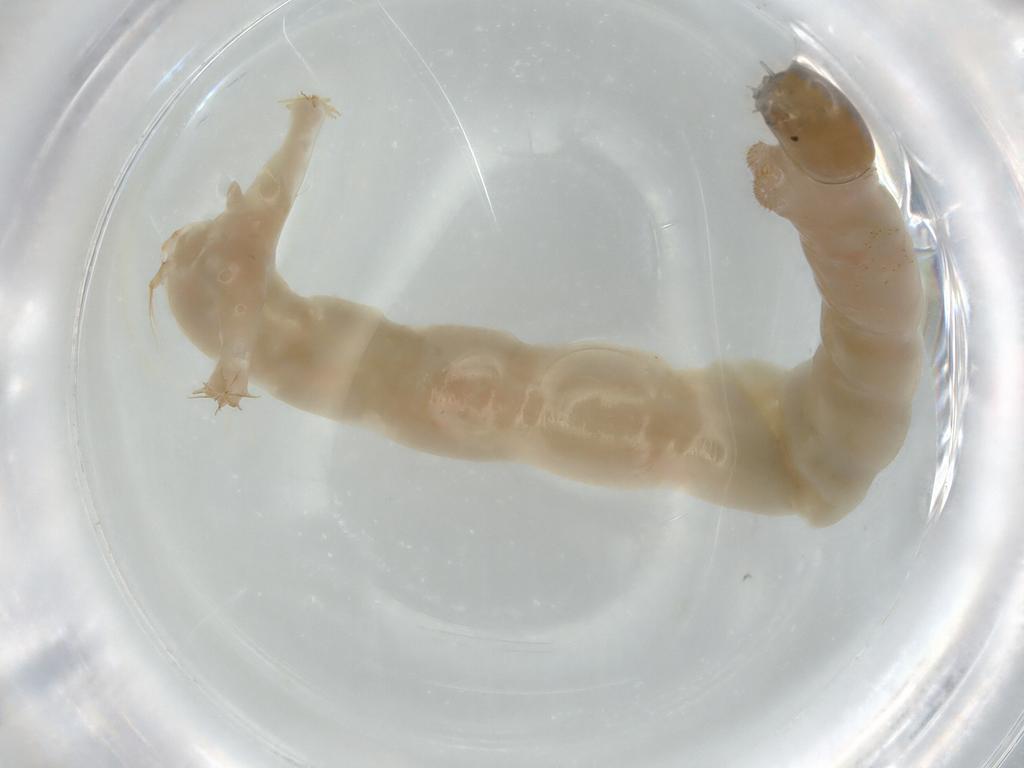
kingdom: Animalia
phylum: Arthropoda
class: Insecta
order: Diptera
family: Chironomidae
